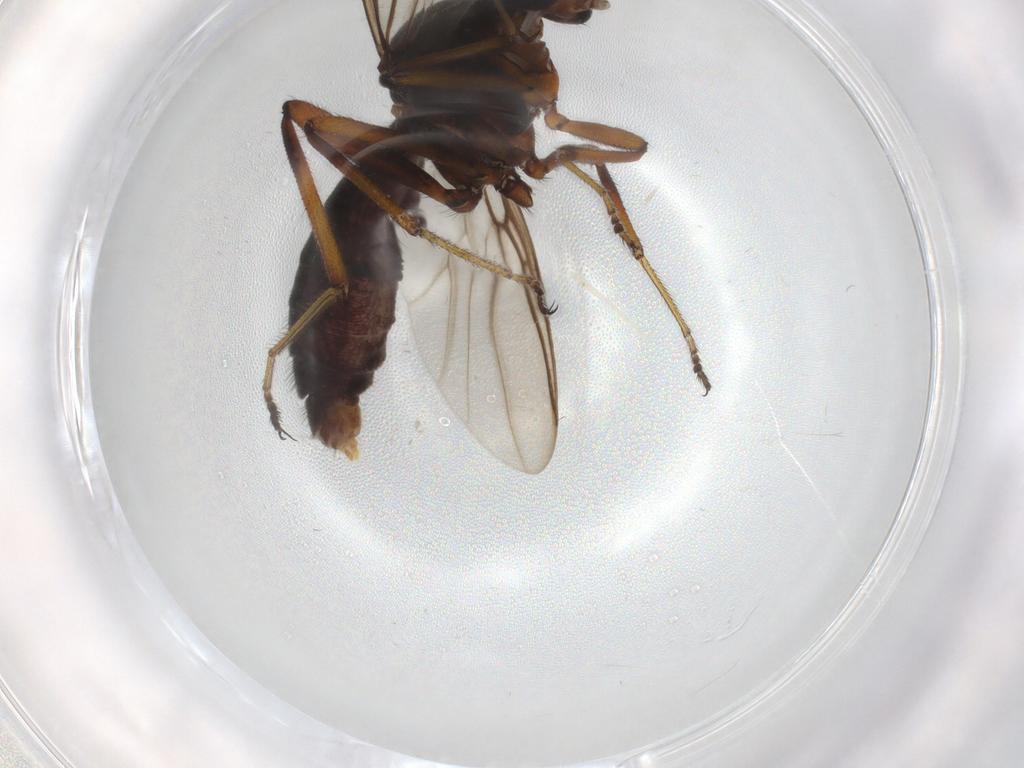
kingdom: Animalia
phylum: Arthropoda
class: Insecta
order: Diptera
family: Ceratopogonidae
